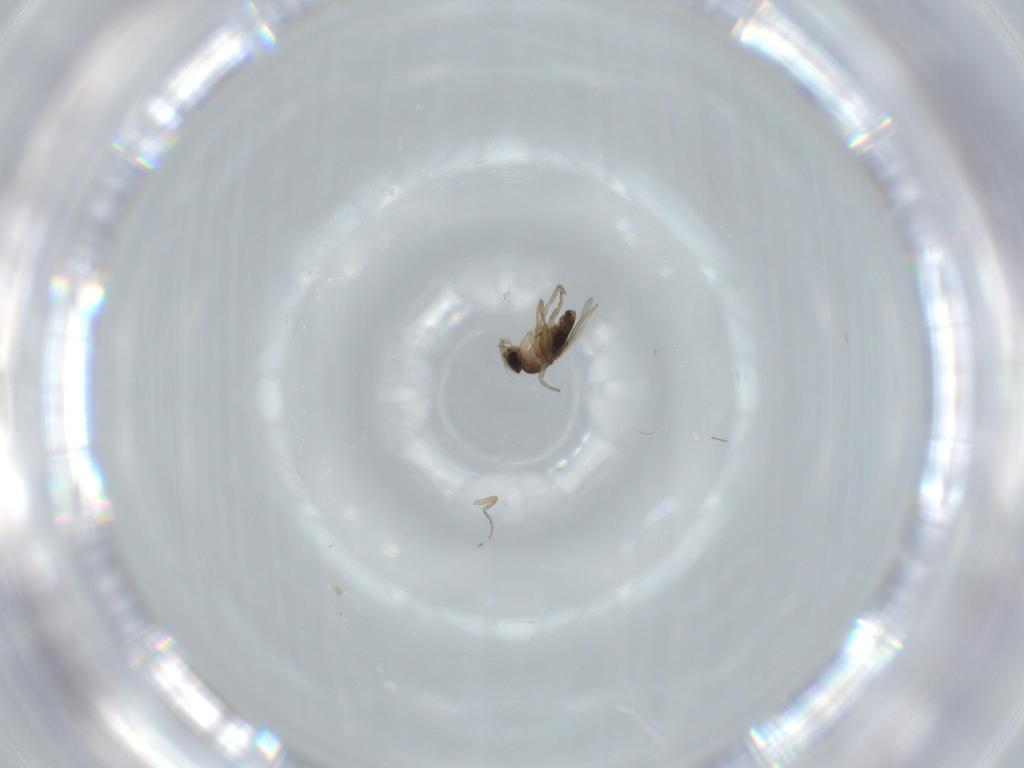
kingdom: Animalia
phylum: Arthropoda
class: Insecta
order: Diptera
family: Phoridae
